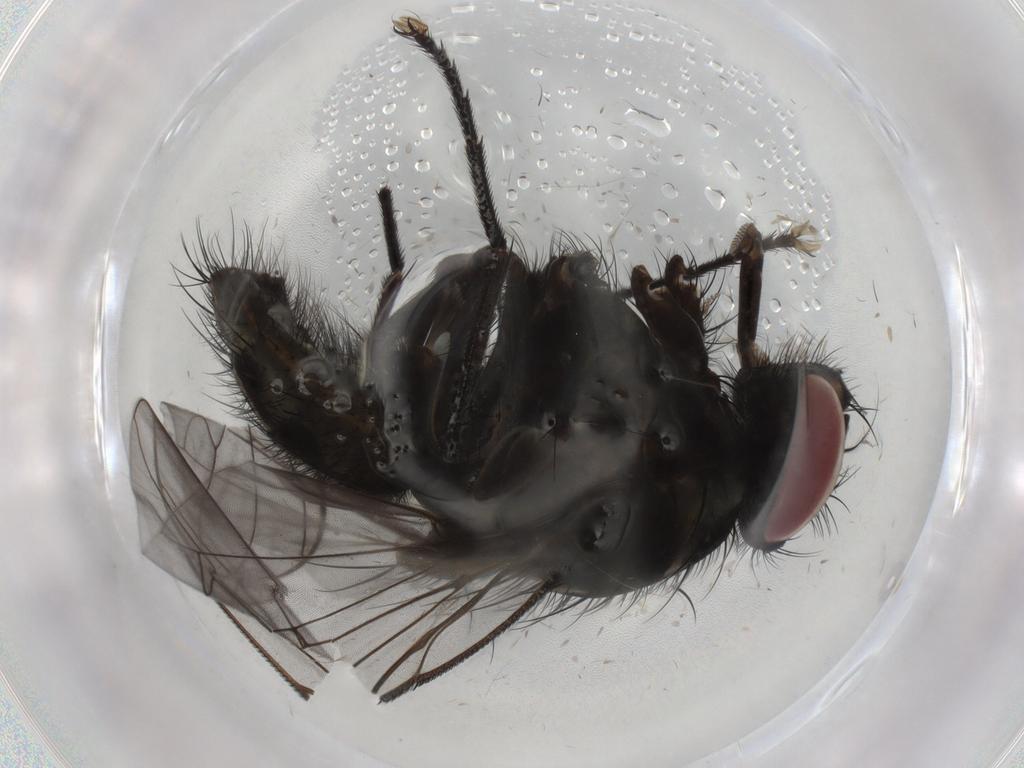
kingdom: Animalia
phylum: Arthropoda
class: Insecta
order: Diptera
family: Muscidae
